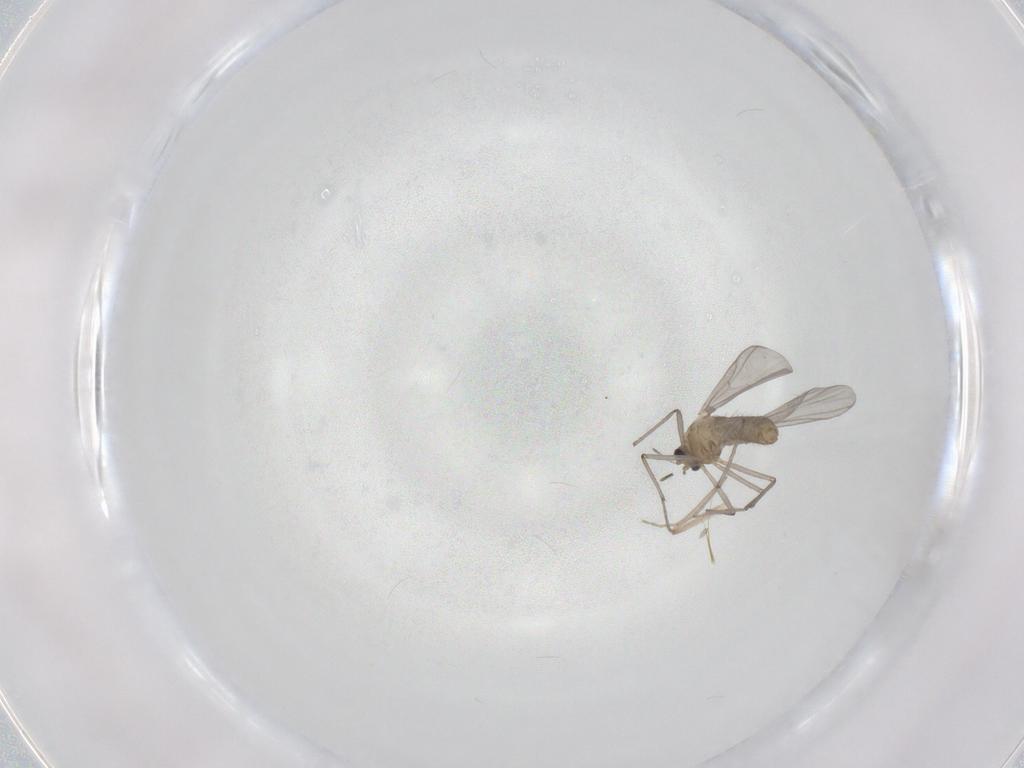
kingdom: Animalia
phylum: Arthropoda
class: Insecta
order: Diptera
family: Chironomidae
